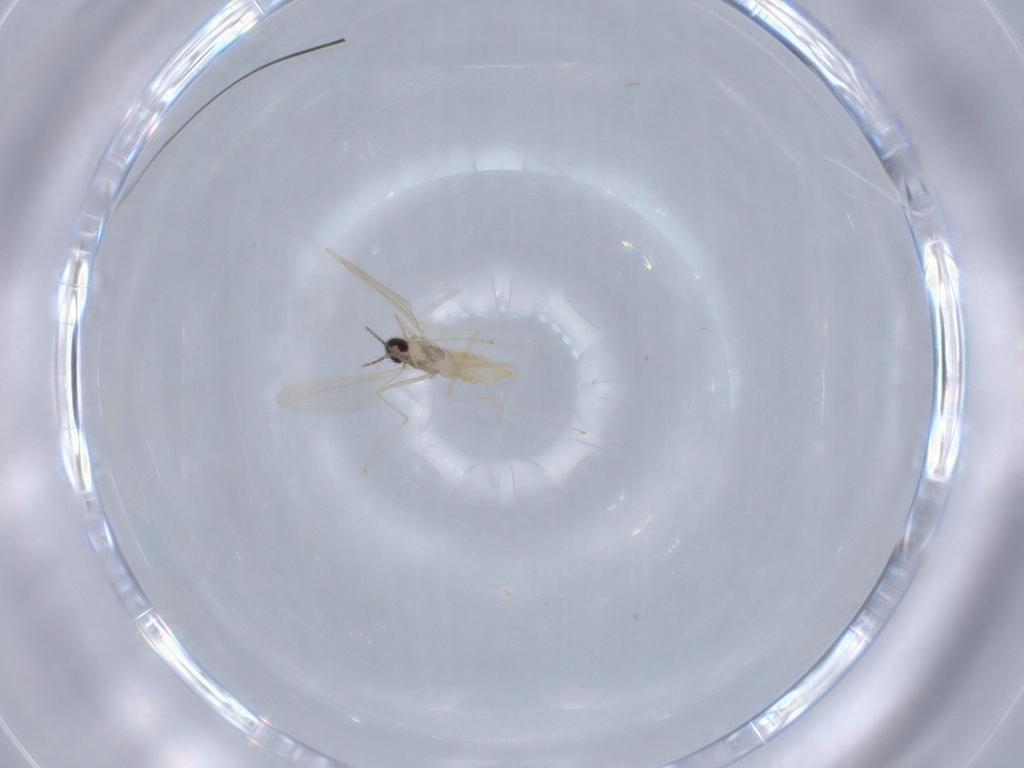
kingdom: Animalia
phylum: Arthropoda
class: Insecta
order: Diptera
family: Cecidomyiidae
